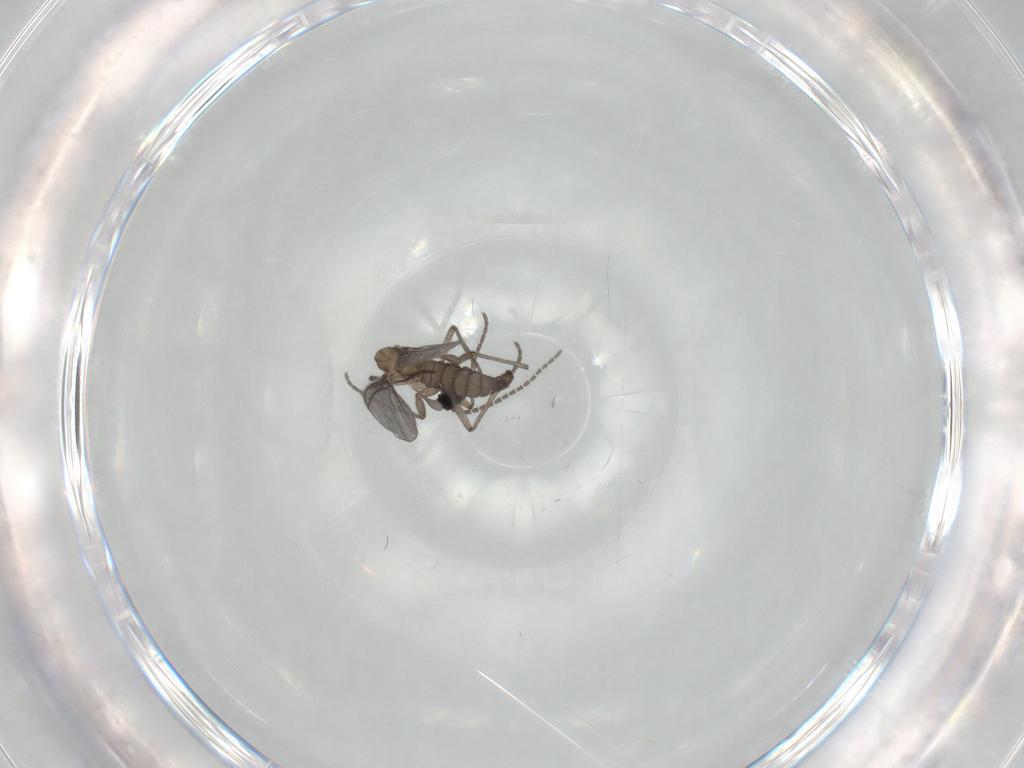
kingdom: Animalia
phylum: Arthropoda
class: Insecta
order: Diptera
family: Sciaridae
